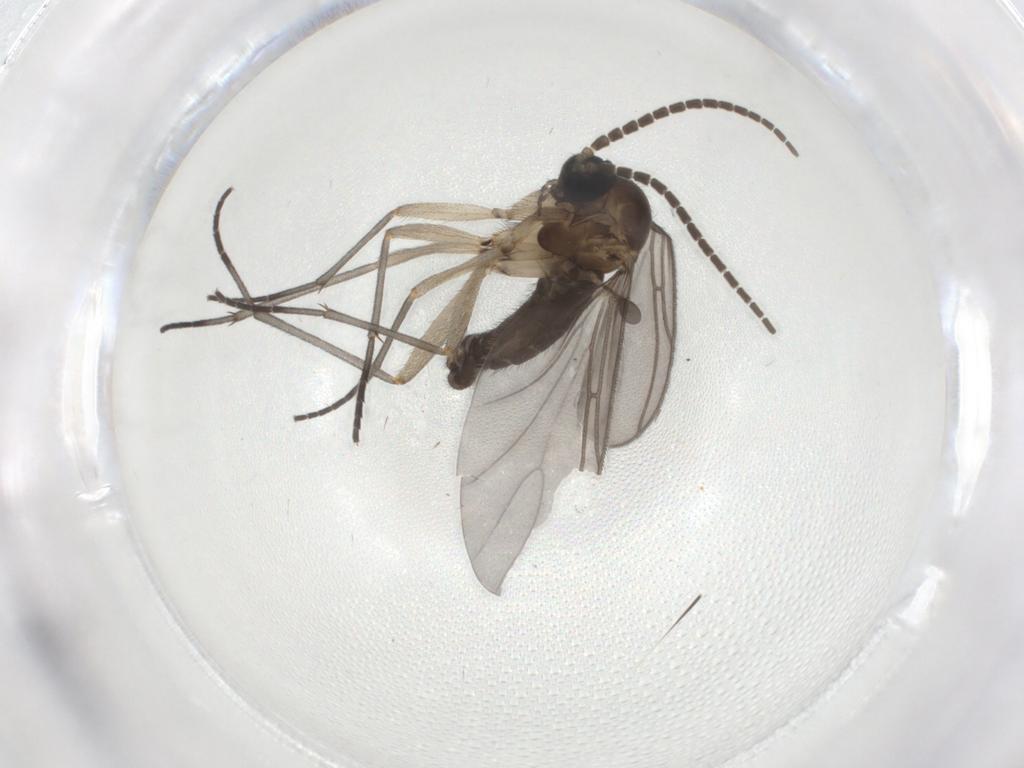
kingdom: Animalia
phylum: Arthropoda
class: Insecta
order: Diptera
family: Sciaridae
